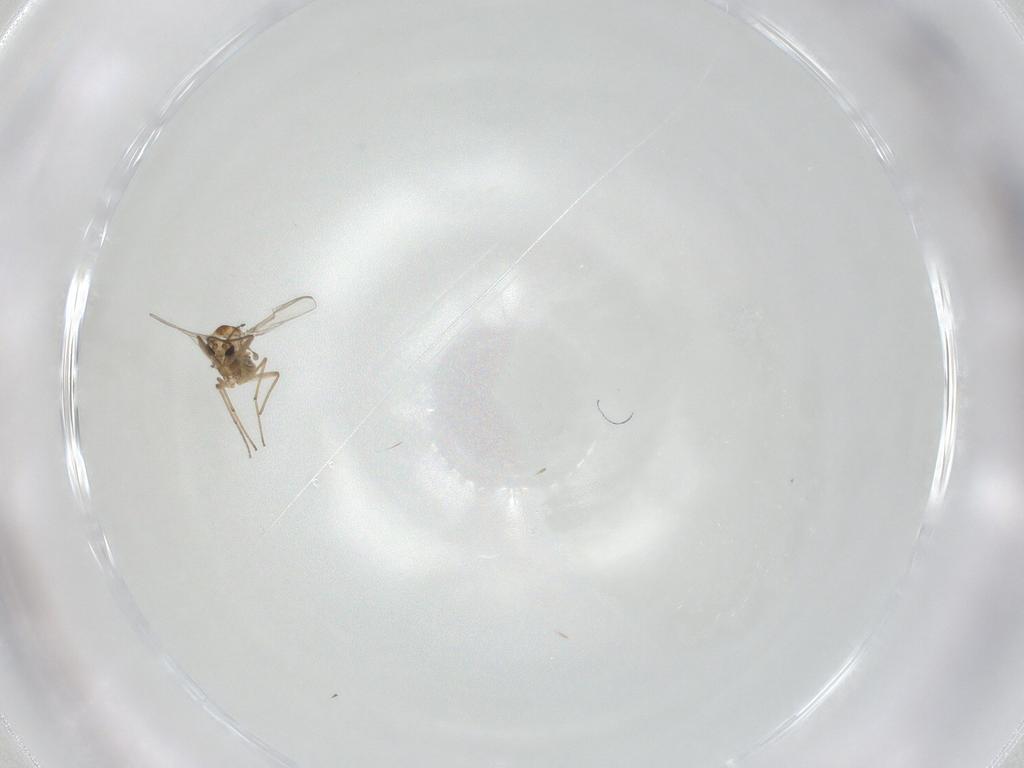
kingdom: Animalia
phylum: Arthropoda
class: Insecta
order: Diptera
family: Chironomidae
